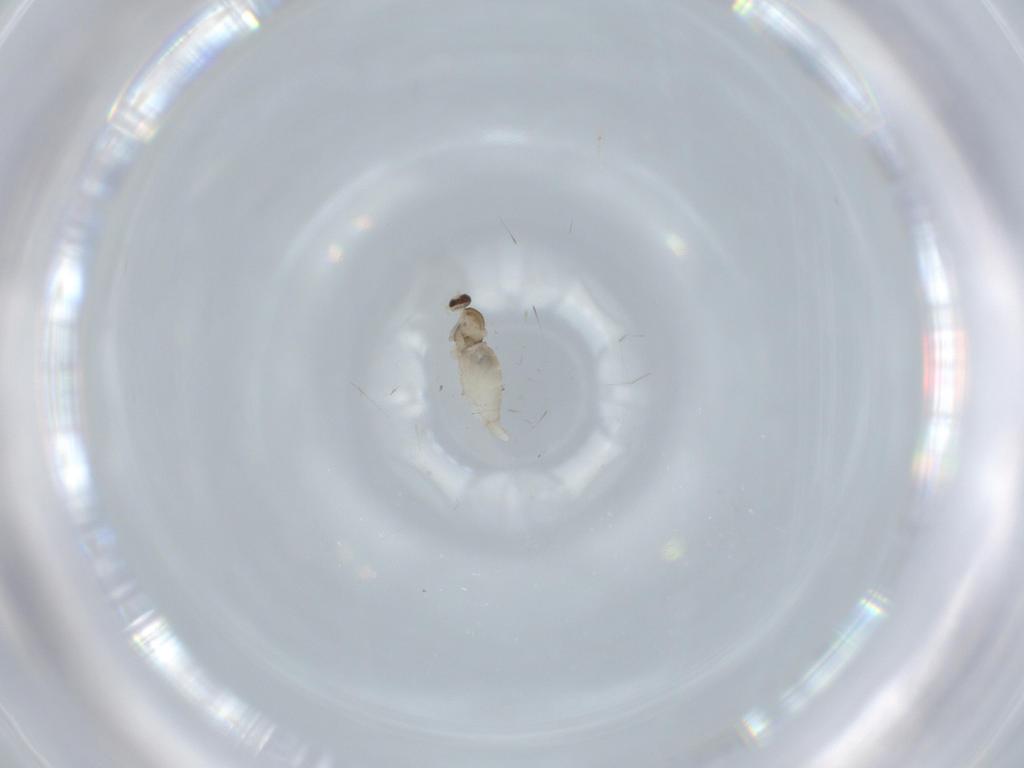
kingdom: Animalia
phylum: Arthropoda
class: Insecta
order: Diptera
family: Cecidomyiidae
